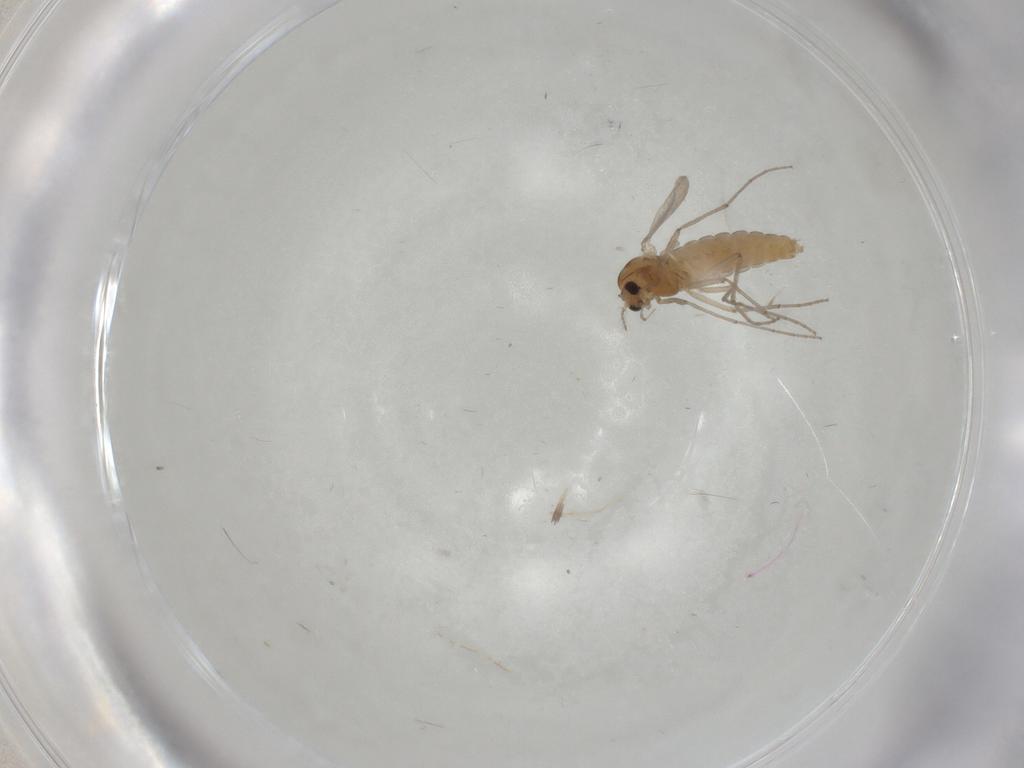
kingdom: Animalia
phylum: Arthropoda
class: Insecta
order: Diptera
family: Chironomidae
